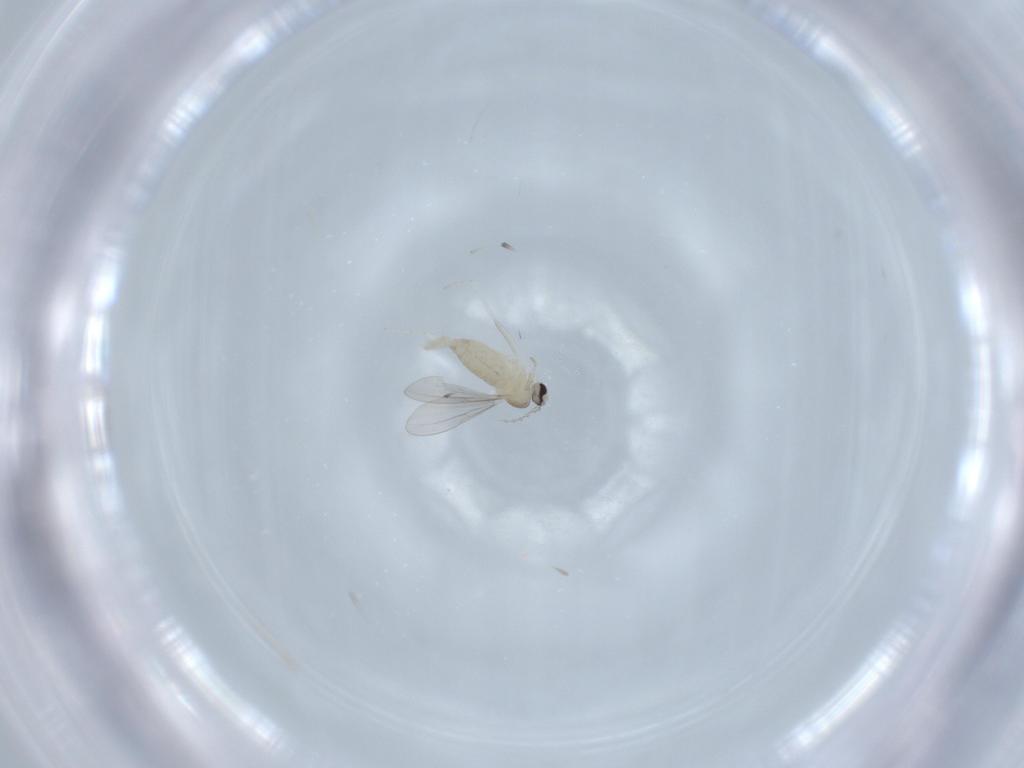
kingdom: Animalia
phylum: Arthropoda
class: Insecta
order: Diptera
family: Cecidomyiidae
